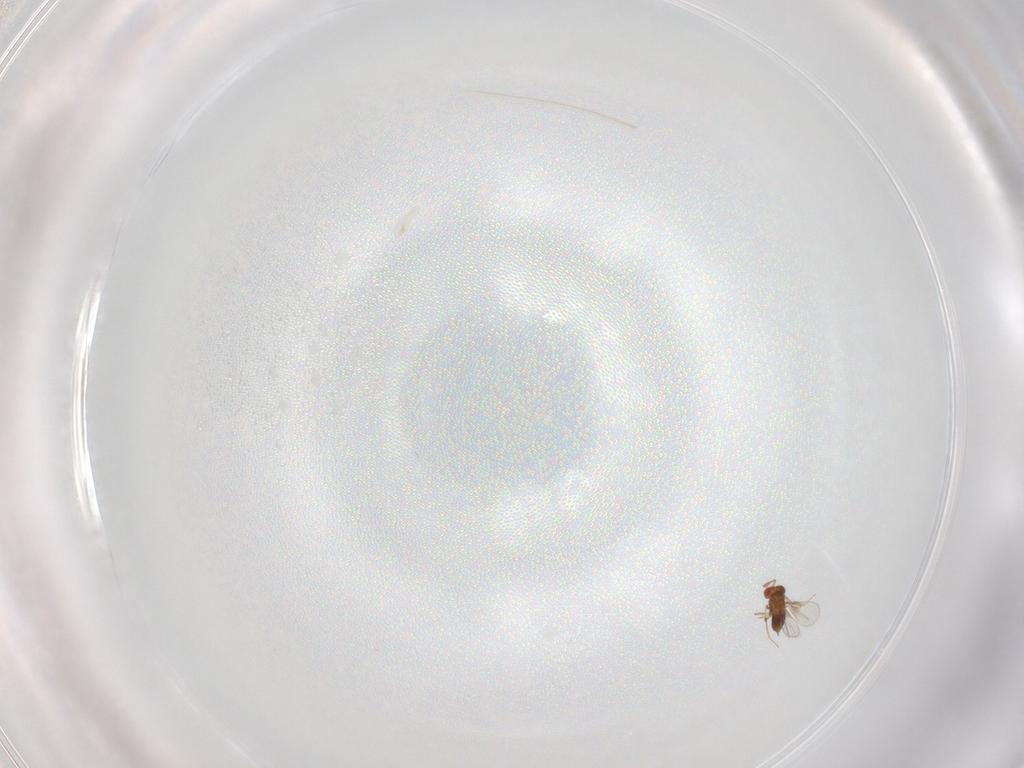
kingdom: Animalia
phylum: Arthropoda
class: Insecta
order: Hymenoptera
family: Trichogrammatidae
